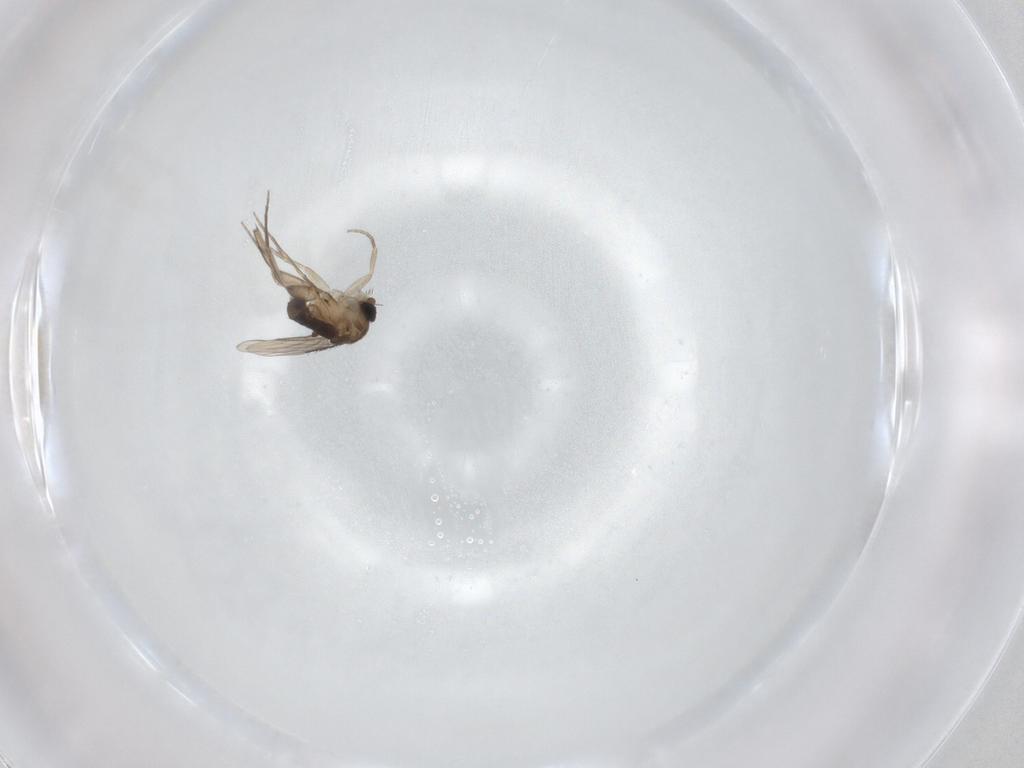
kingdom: Animalia
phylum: Arthropoda
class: Insecta
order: Diptera
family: Phoridae
